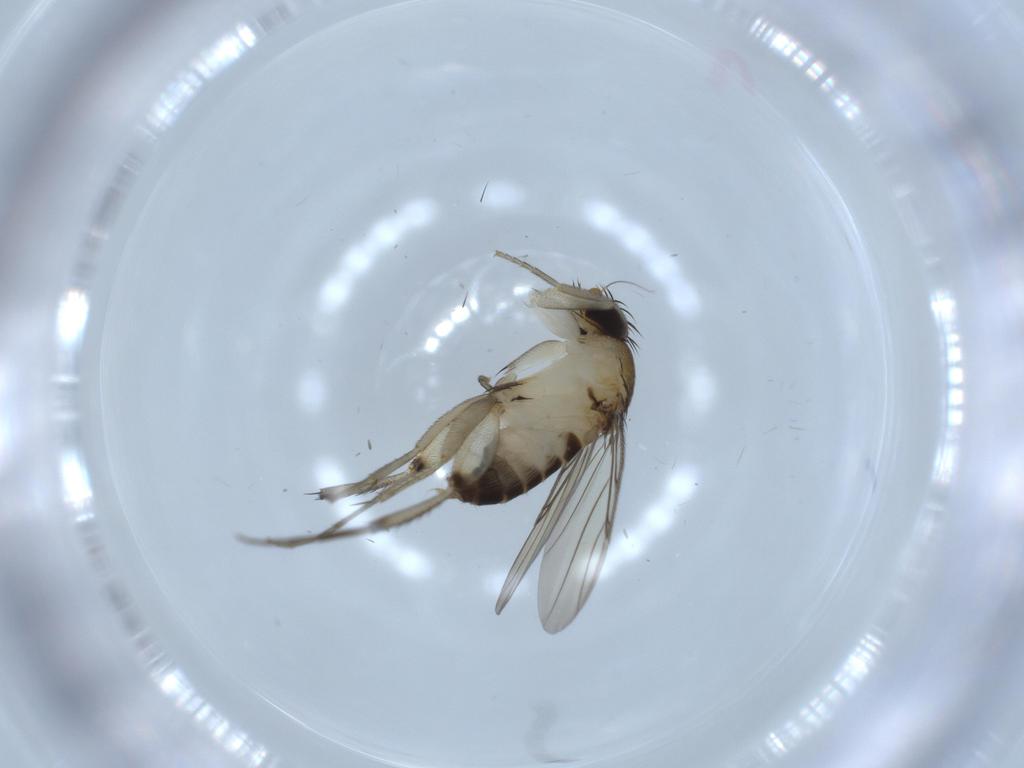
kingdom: Animalia
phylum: Arthropoda
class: Insecta
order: Diptera
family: Phoridae
